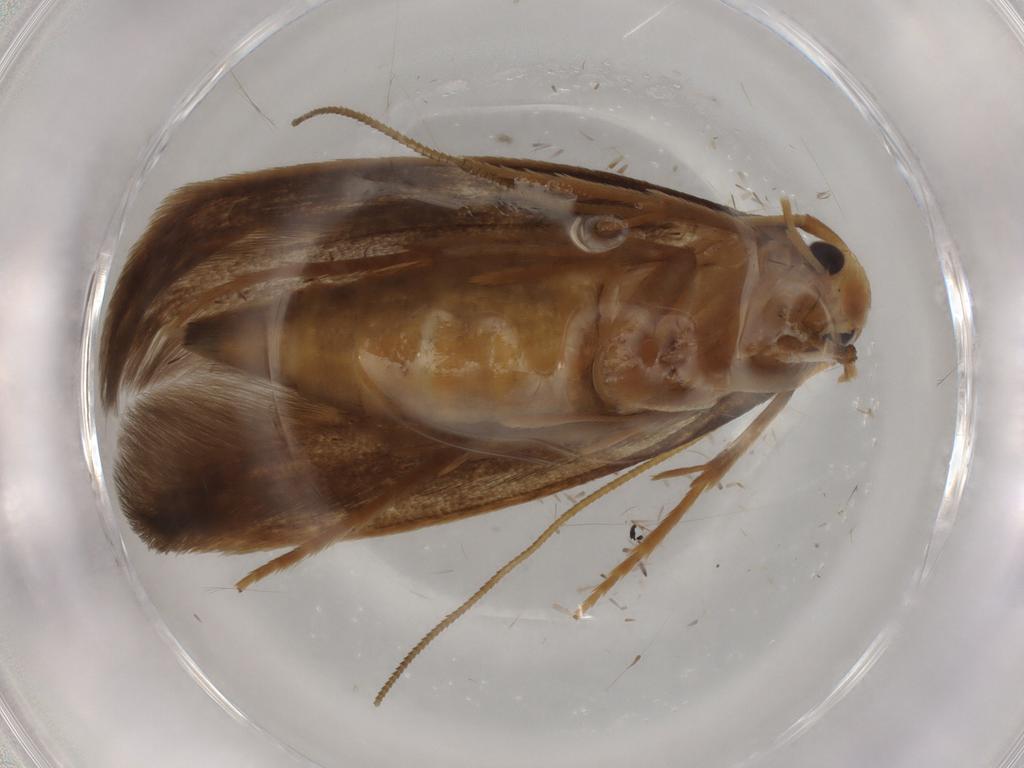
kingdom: Animalia
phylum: Arthropoda
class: Insecta
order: Lepidoptera
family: Tineidae
